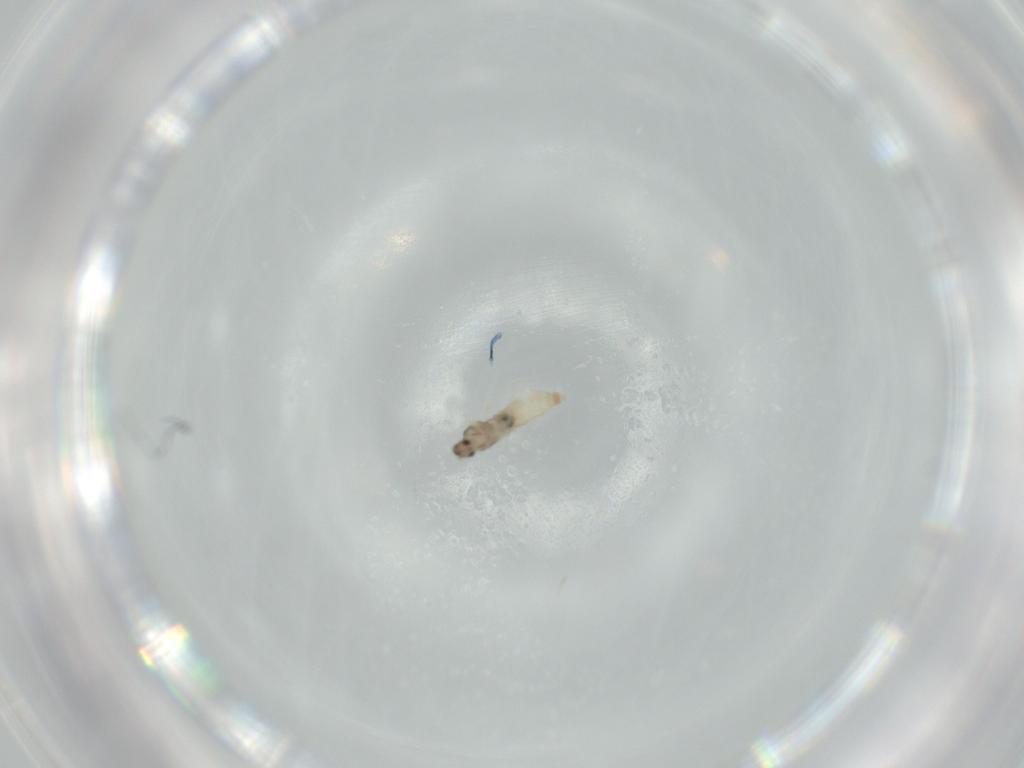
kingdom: Animalia
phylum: Arthropoda
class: Insecta
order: Diptera
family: Cecidomyiidae
